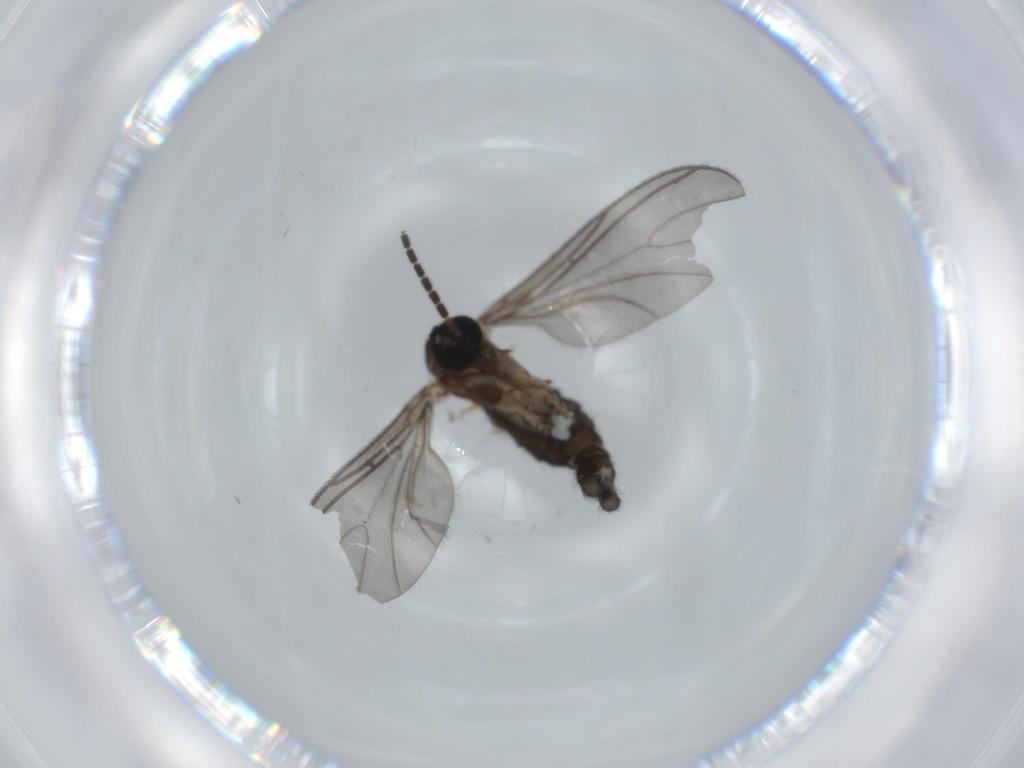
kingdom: Animalia
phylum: Arthropoda
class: Insecta
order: Diptera
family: Sciaridae
